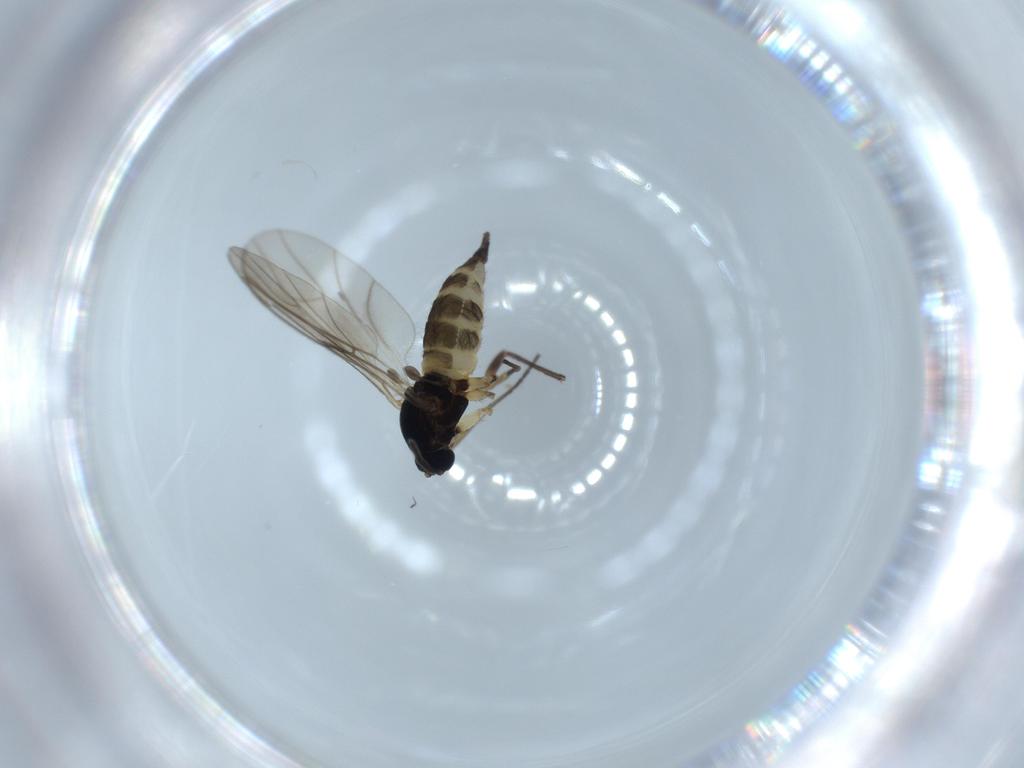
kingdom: Animalia
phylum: Arthropoda
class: Insecta
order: Diptera
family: Sciaridae
